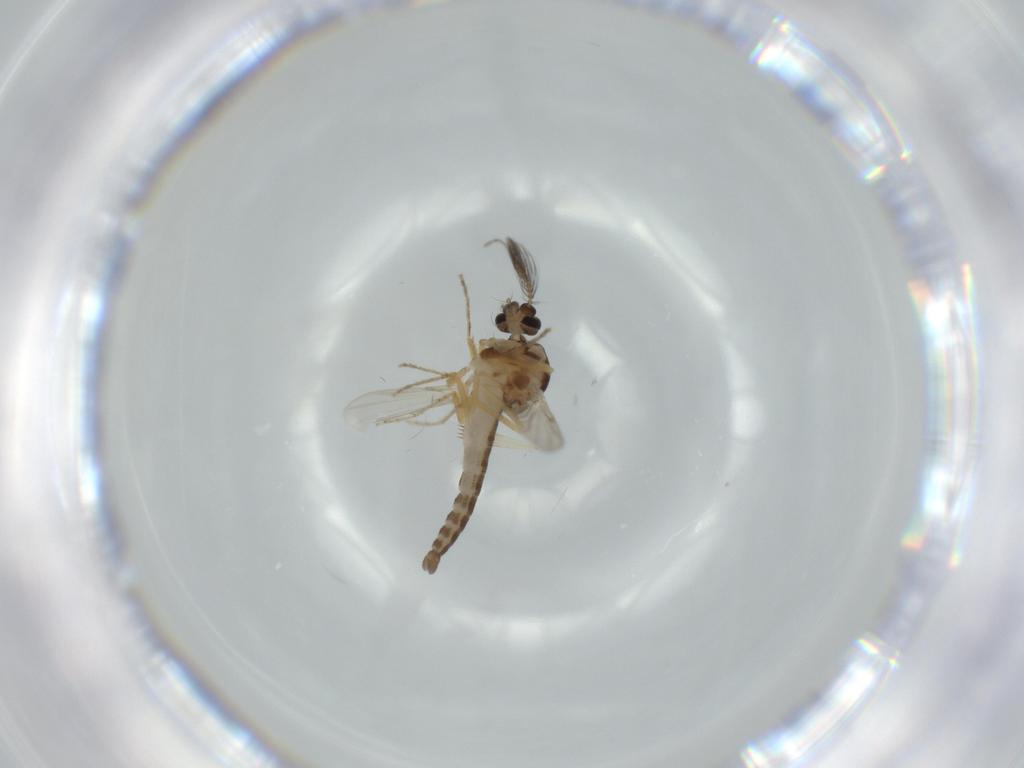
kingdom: Animalia
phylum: Arthropoda
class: Insecta
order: Diptera
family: Ceratopogonidae
